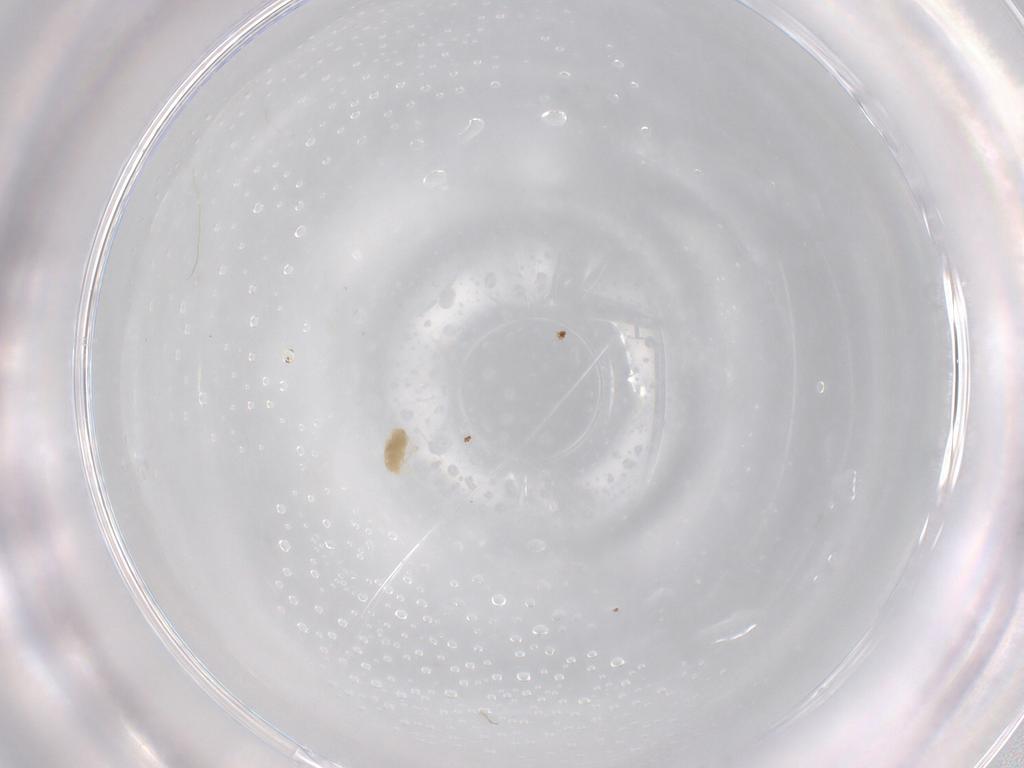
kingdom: Animalia
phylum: Arthropoda
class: Arachnida
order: Trombidiformes
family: Eupodidae
